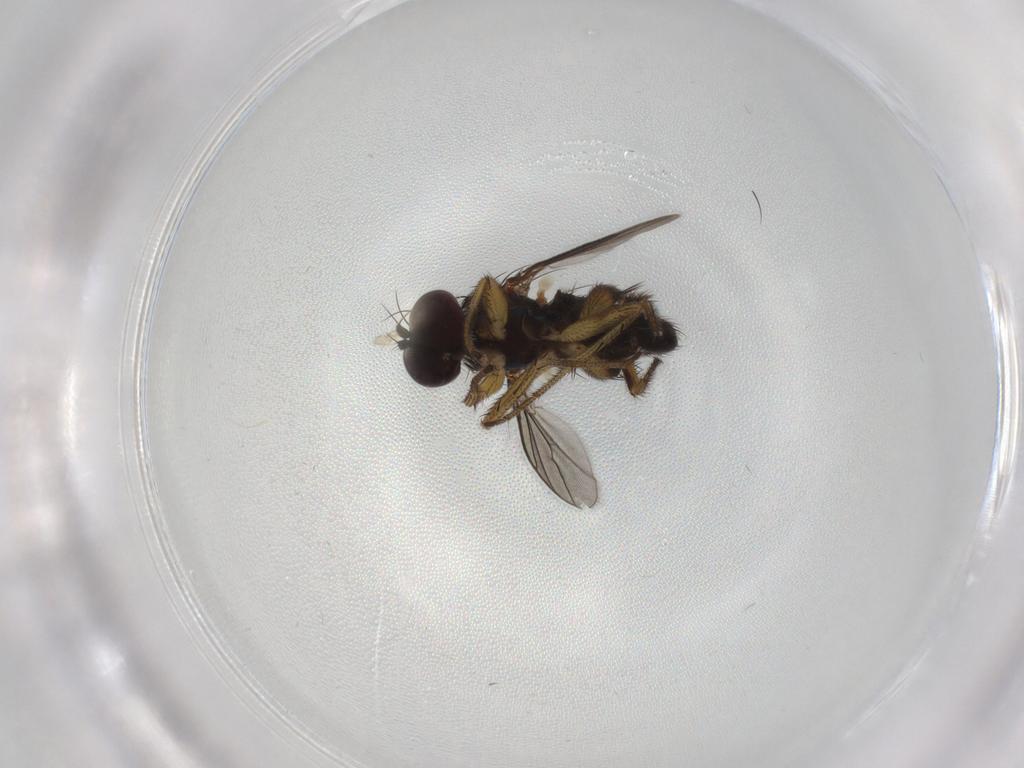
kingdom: Animalia
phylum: Arthropoda
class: Insecta
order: Diptera
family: Dolichopodidae
